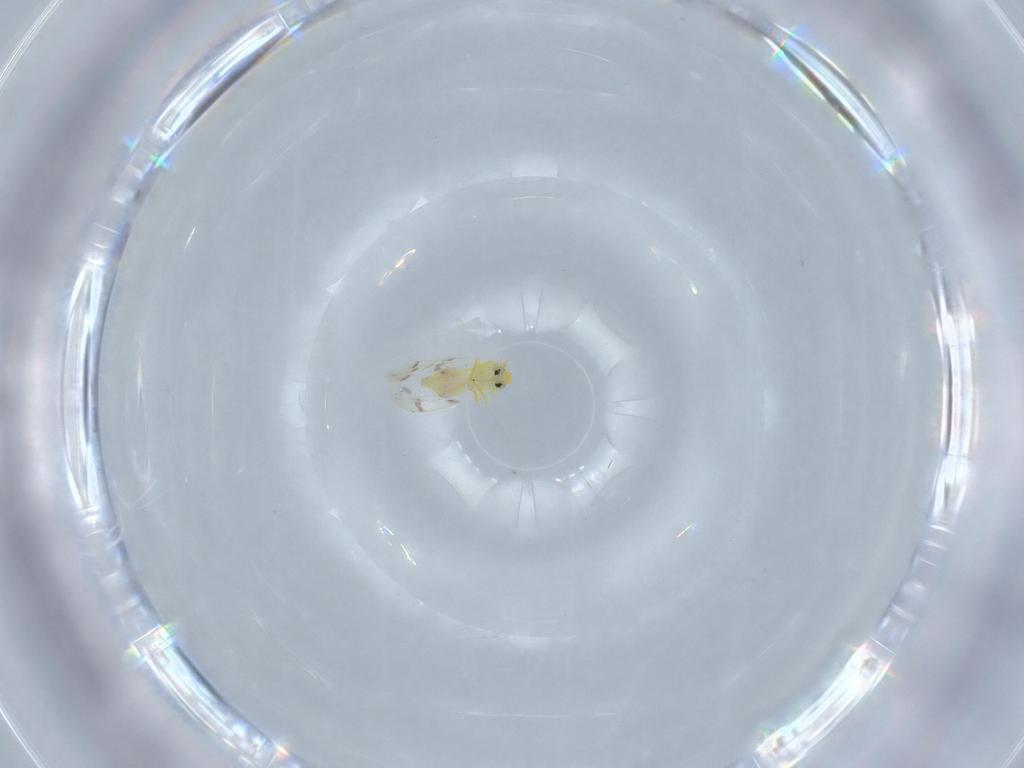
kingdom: Animalia
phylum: Arthropoda
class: Insecta
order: Hemiptera
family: Aleyrodidae
